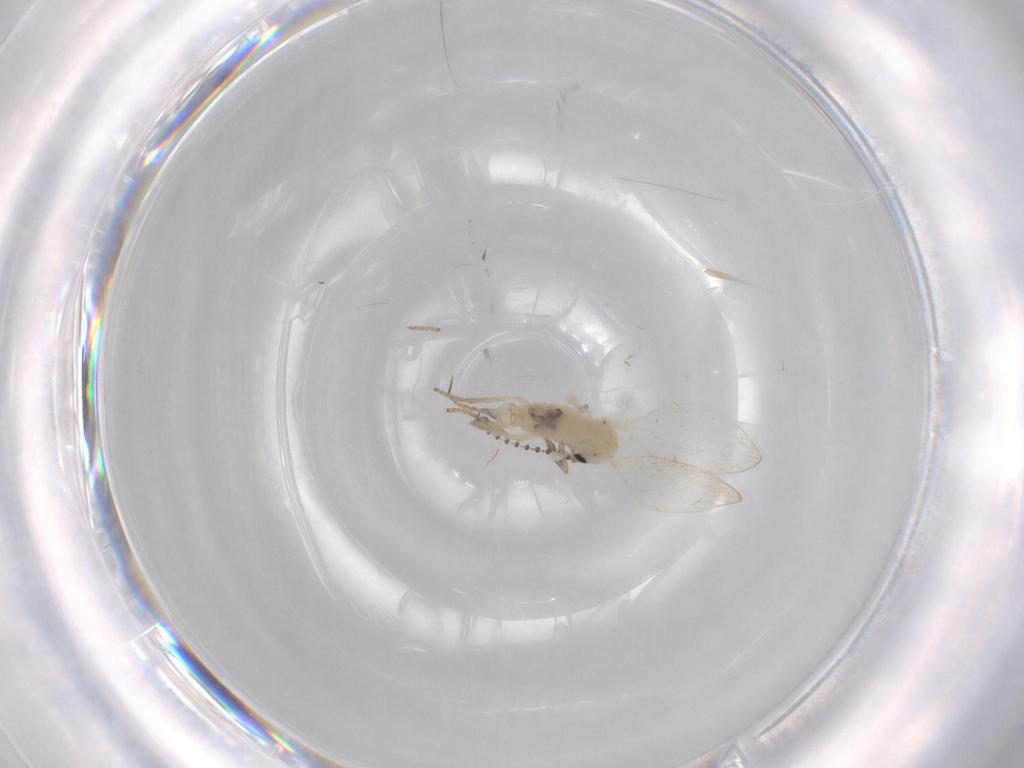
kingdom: Animalia
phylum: Arthropoda
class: Insecta
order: Diptera
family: Psychodidae
